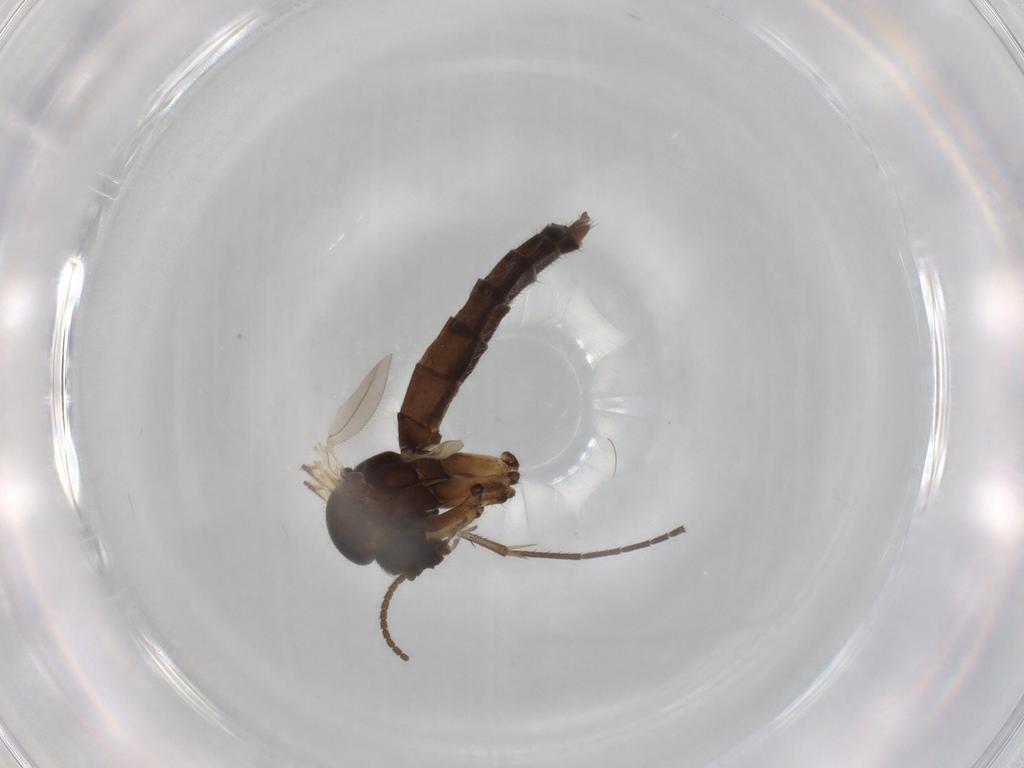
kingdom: Animalia
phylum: Arthropoda
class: Insecta
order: Diptera
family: Mycetophilidae
